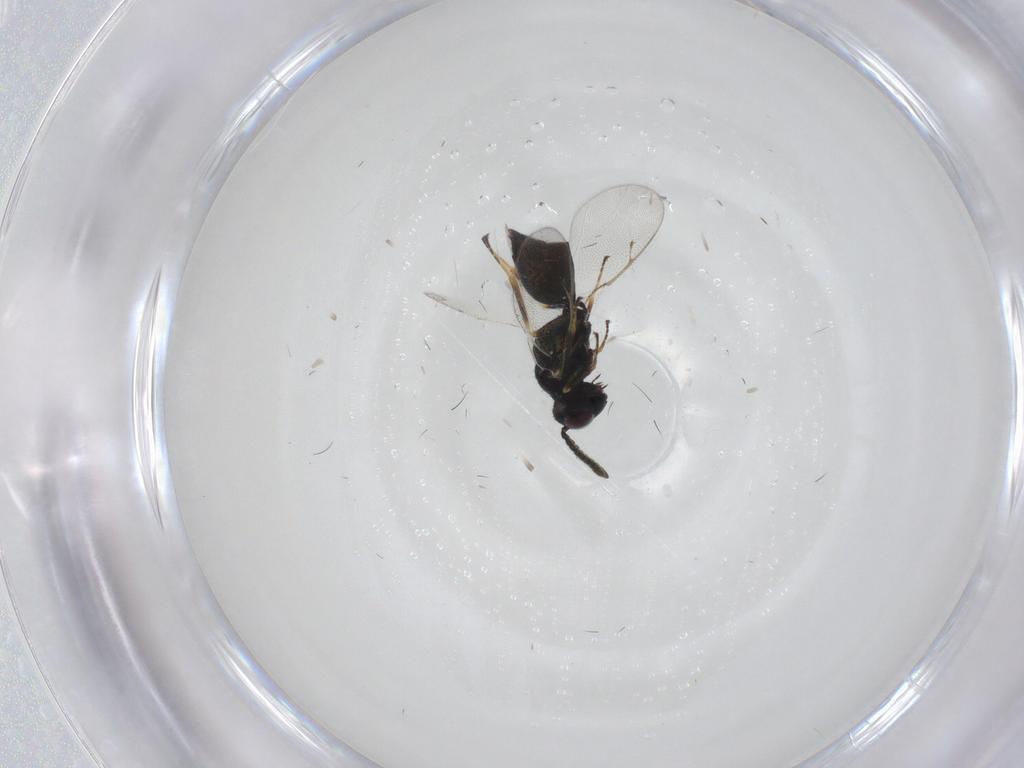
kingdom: Animalia
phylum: Arthropoda
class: Insecta
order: Hymenoptera
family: Pteromalidae
